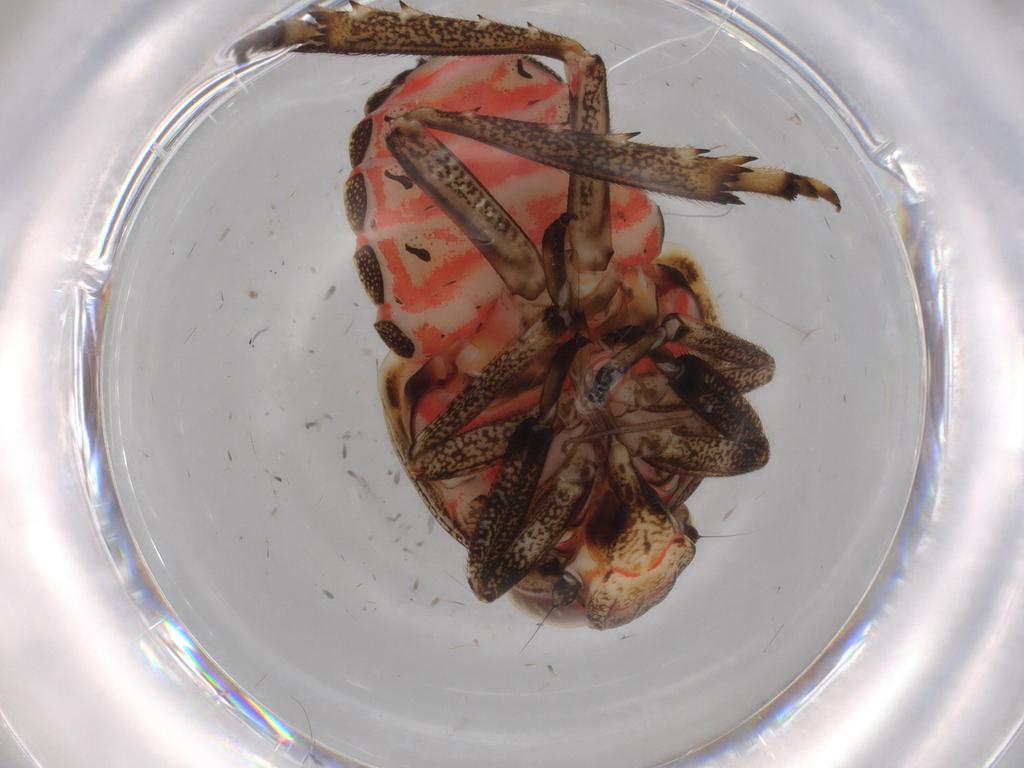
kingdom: Animalia
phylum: Arthropoda
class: Insecta
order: Hemiptera
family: Issidae
